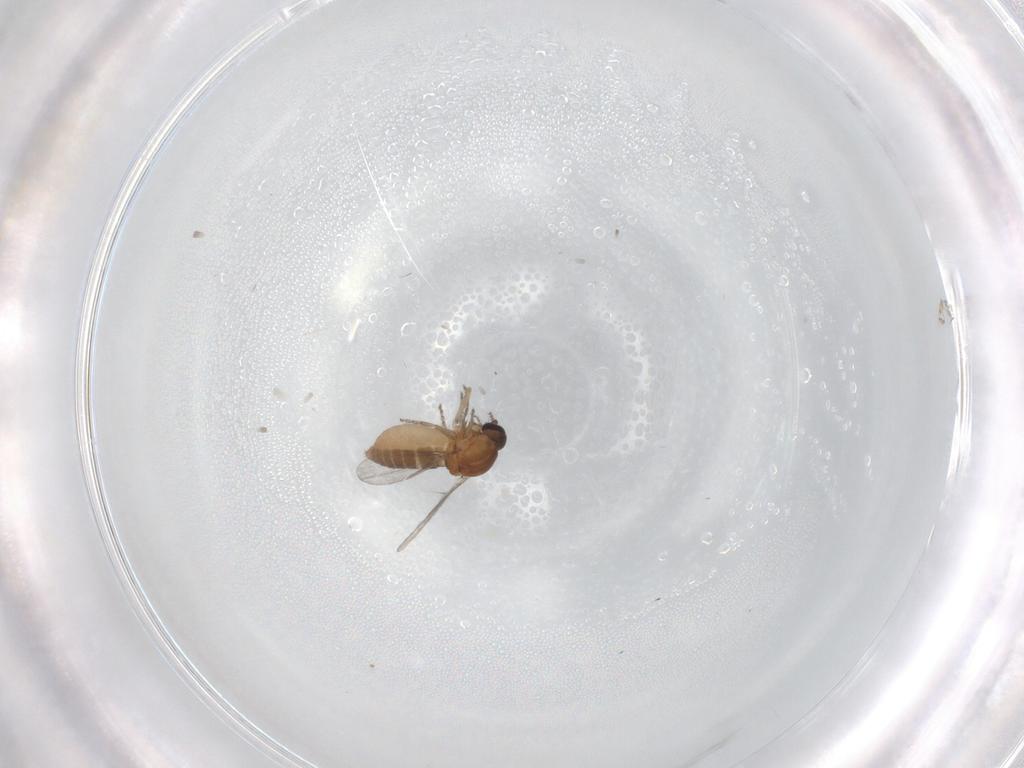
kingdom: Animalia
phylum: Arthropoda
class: Insecta
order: Diptera
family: Ceratopogonidae
